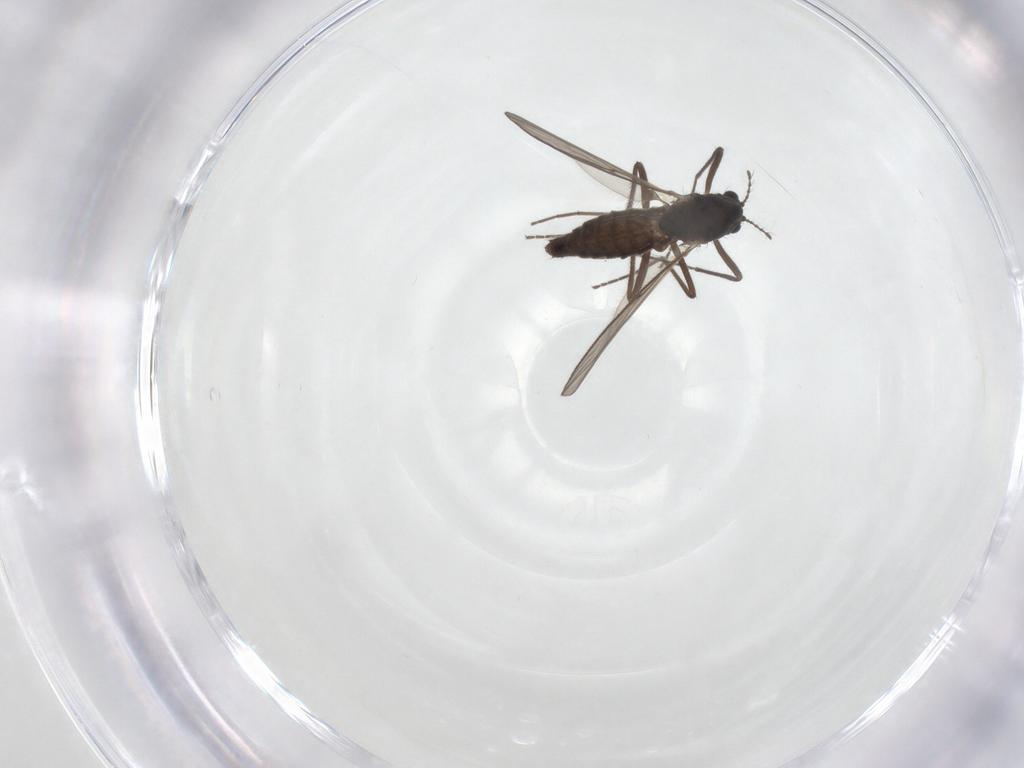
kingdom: Animalia
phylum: Arthropoda
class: Insecta
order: Diptera
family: Chironomidae
